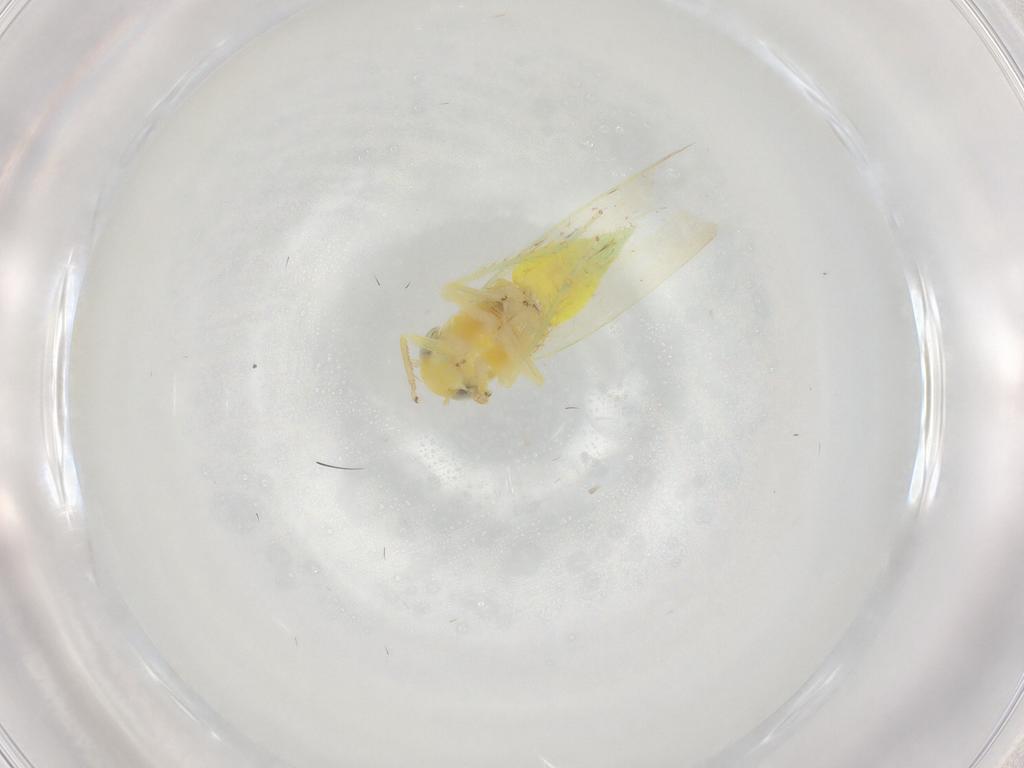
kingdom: Animalia
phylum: Arthropoda
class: Insecta
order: Hemiptera
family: Cicadellidae
